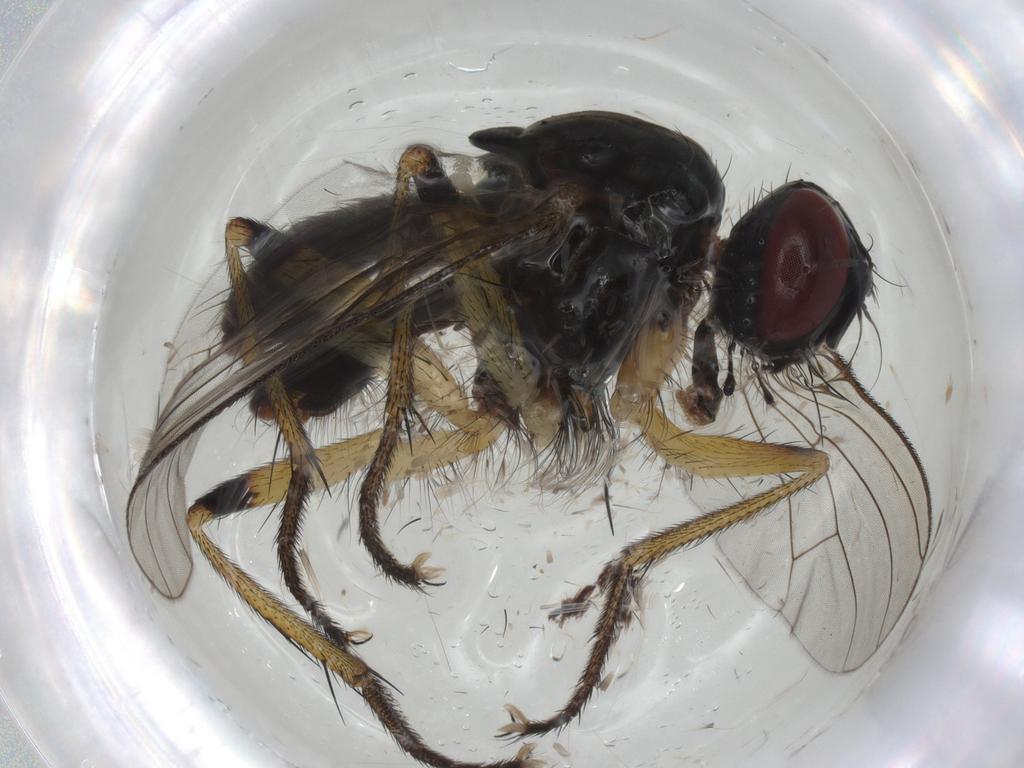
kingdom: Animalia
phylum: Arthropoda
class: Insecta
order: Diptera
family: Muscidae
